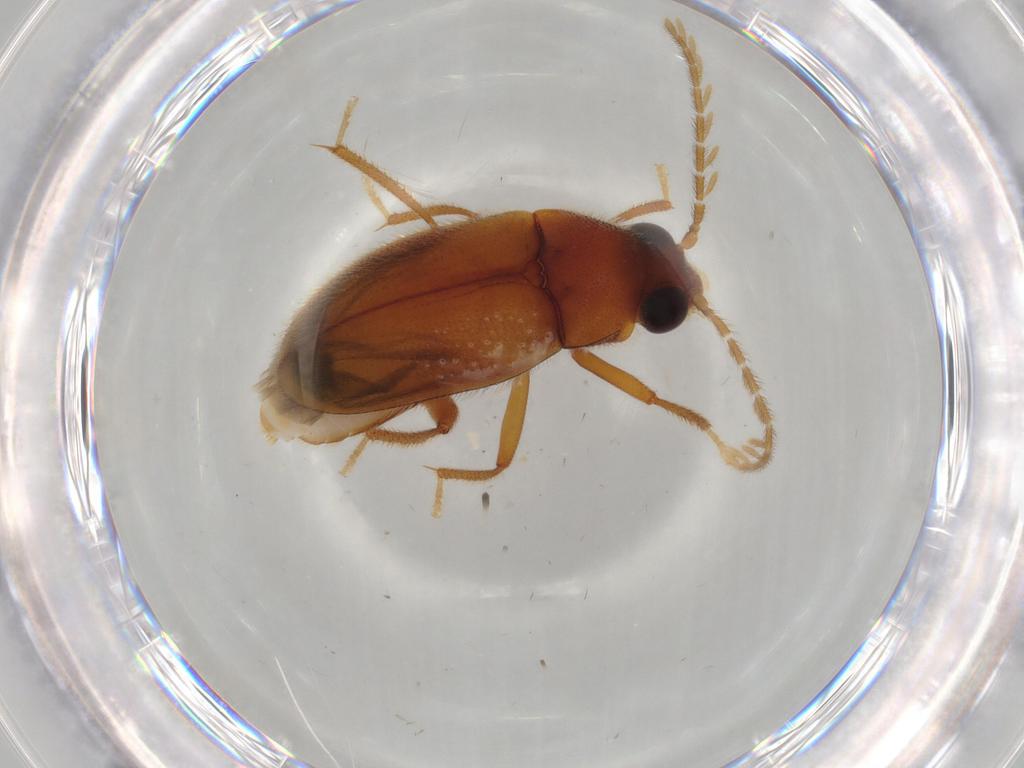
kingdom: Animalia
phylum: Arthropoda
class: Insecta
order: Coleoptera
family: Ptilodactylidae
